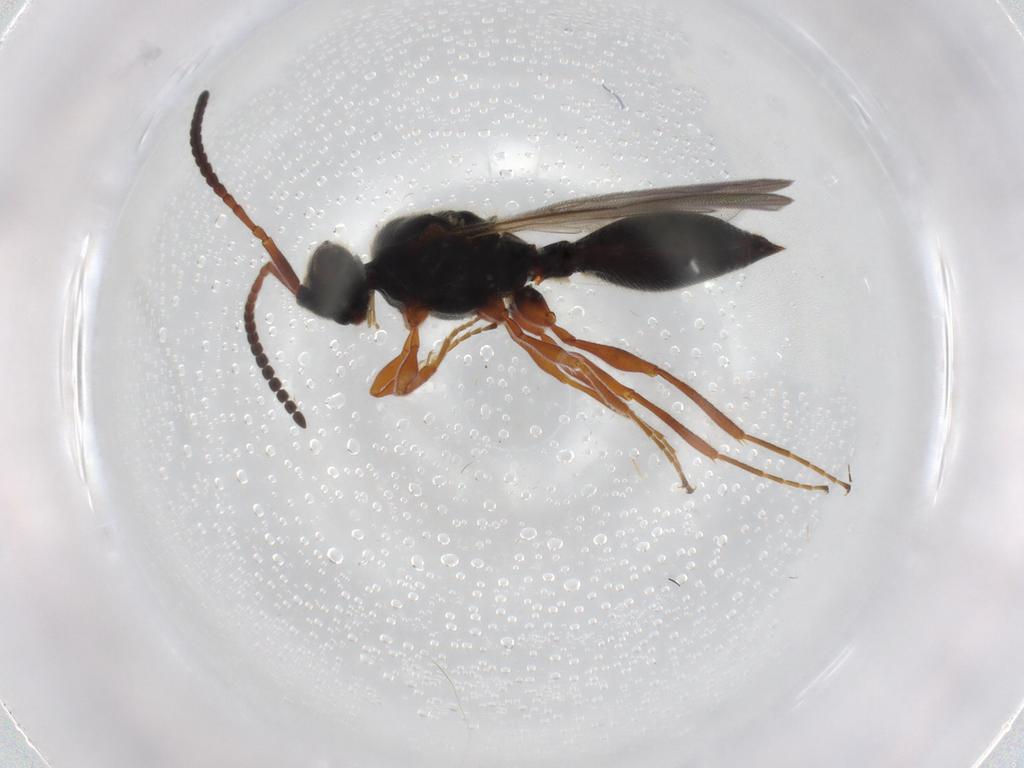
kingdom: Animalia
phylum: Arthropoda
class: Insecta
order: Hymenoptera
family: Diapriidae
